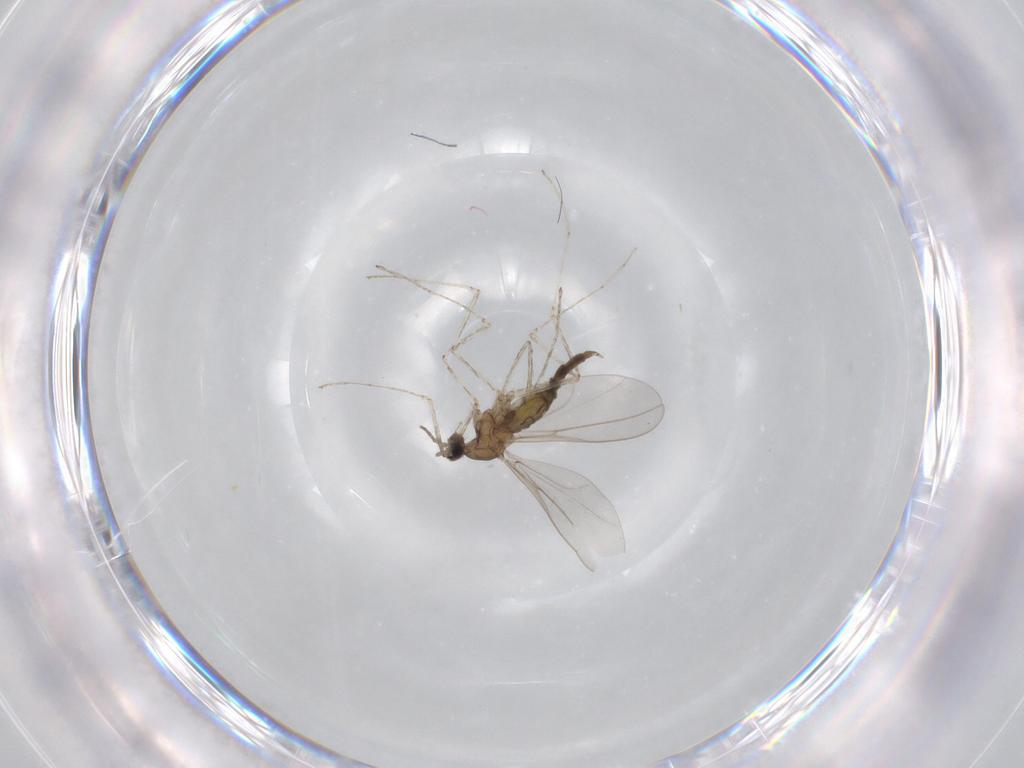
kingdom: Animalia
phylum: Arthropoda
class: Insecta
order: Diptera
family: Cecidomyiidae
